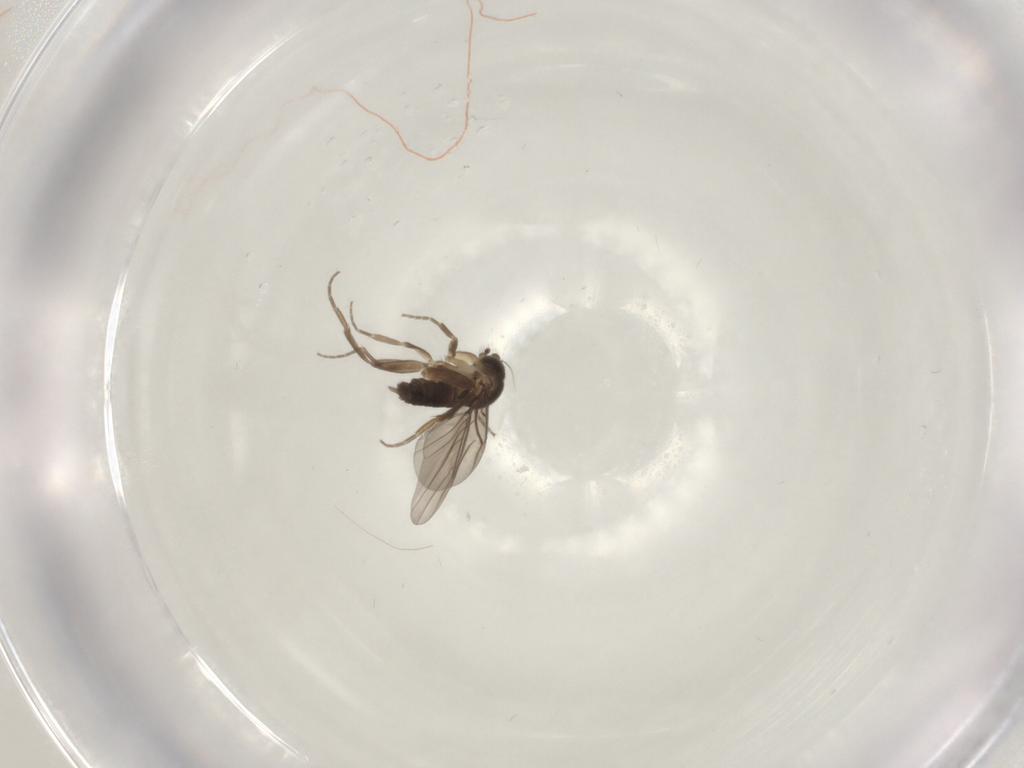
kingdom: Animalia
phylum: Arthropoda
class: Insecta
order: Diptera
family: Phoridae
